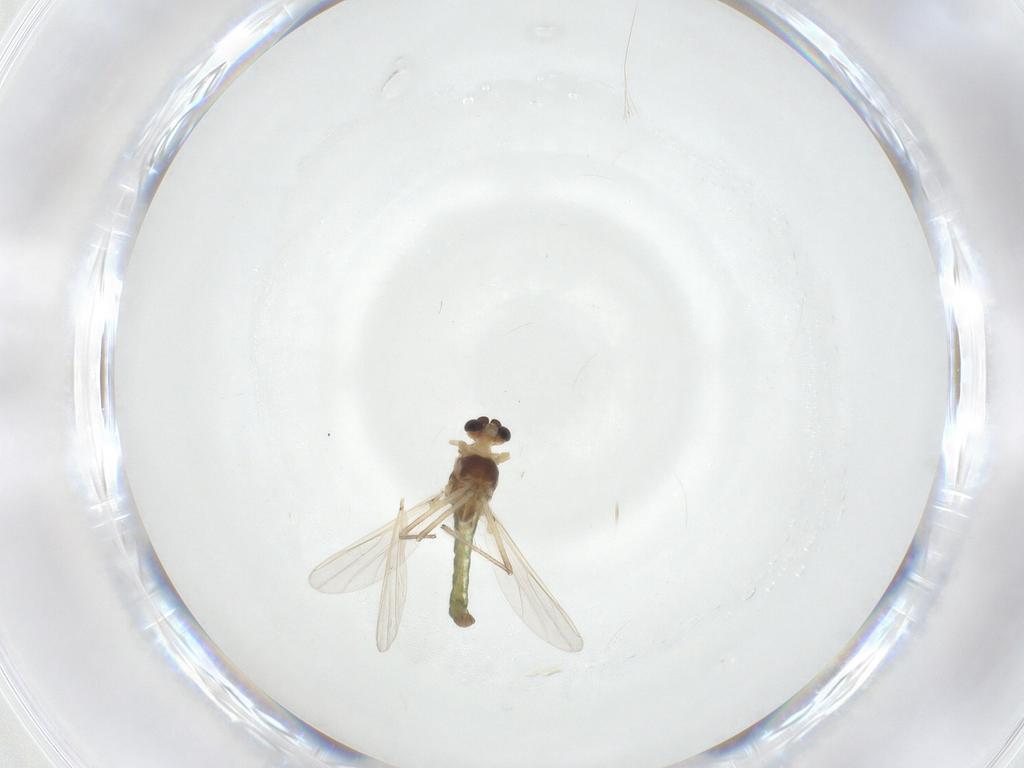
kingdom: Animalia
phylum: Arthropoda
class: Insecta
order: Diptera
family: Chironomidae
